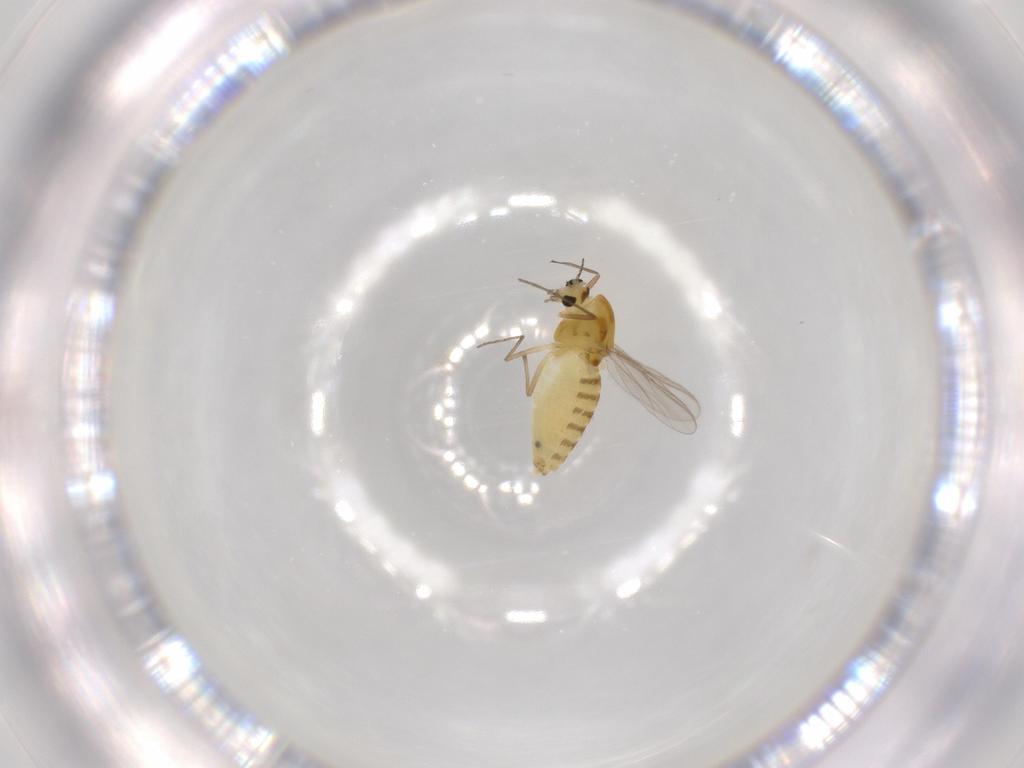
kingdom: Animalia
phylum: Arthropoda
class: Insecta
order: Diptera
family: Chironomidae
